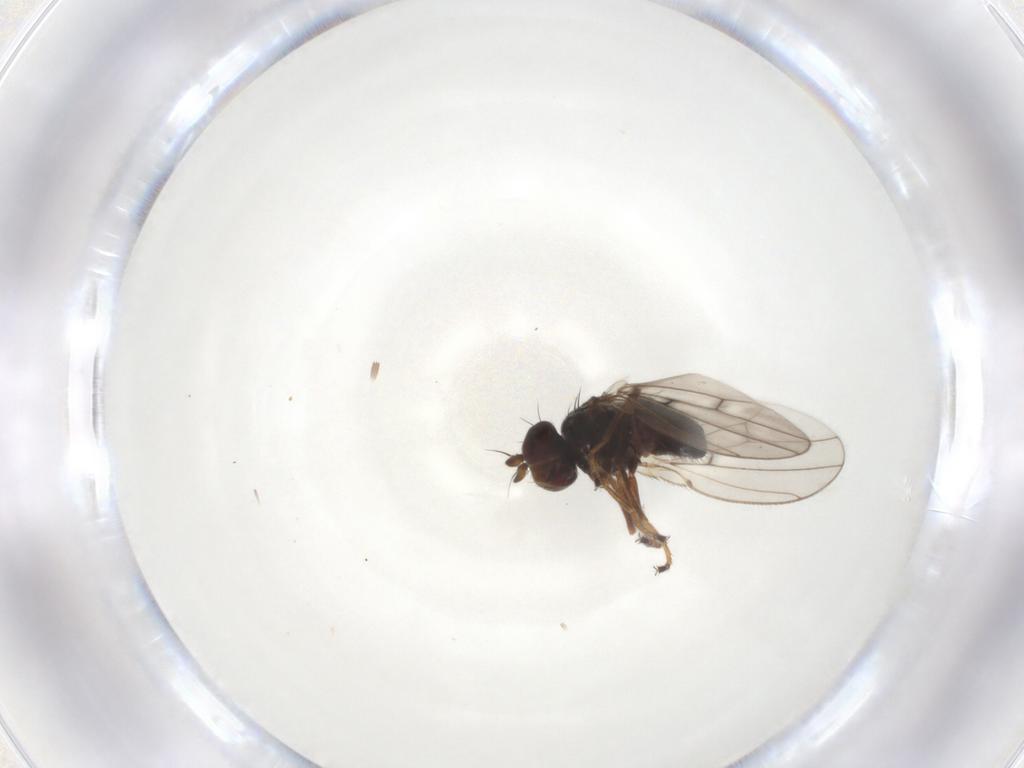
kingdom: Animalia
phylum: Arthropoda
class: Insecta
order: Diptera
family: Ephydridae
